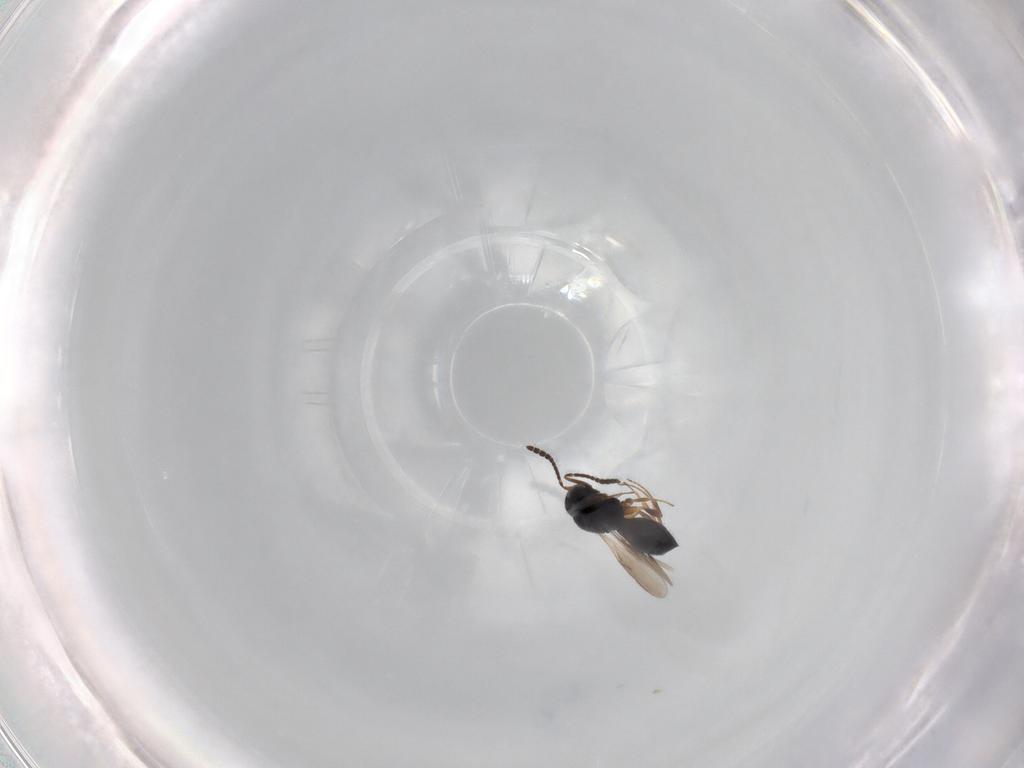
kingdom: Animalia
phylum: Arthropoda
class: Insecta
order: Hymenoptera
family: Scelionidae
